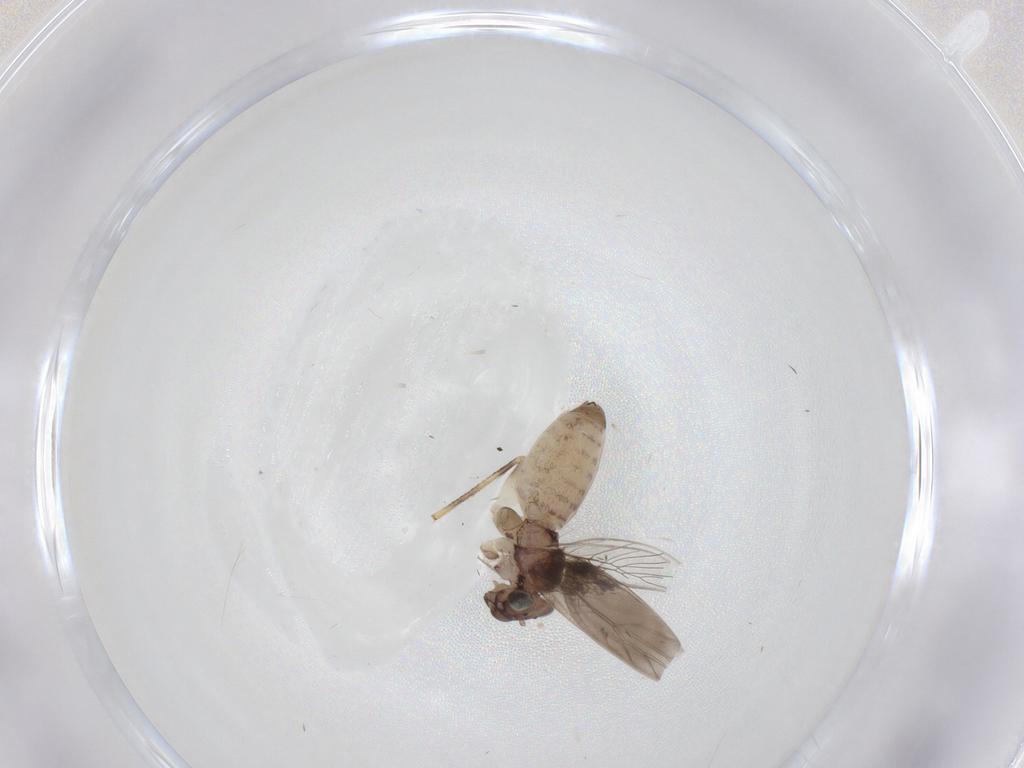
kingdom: Animalia
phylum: Arthropoda
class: Insecta
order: Psocodea
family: Lepidopsocidae
